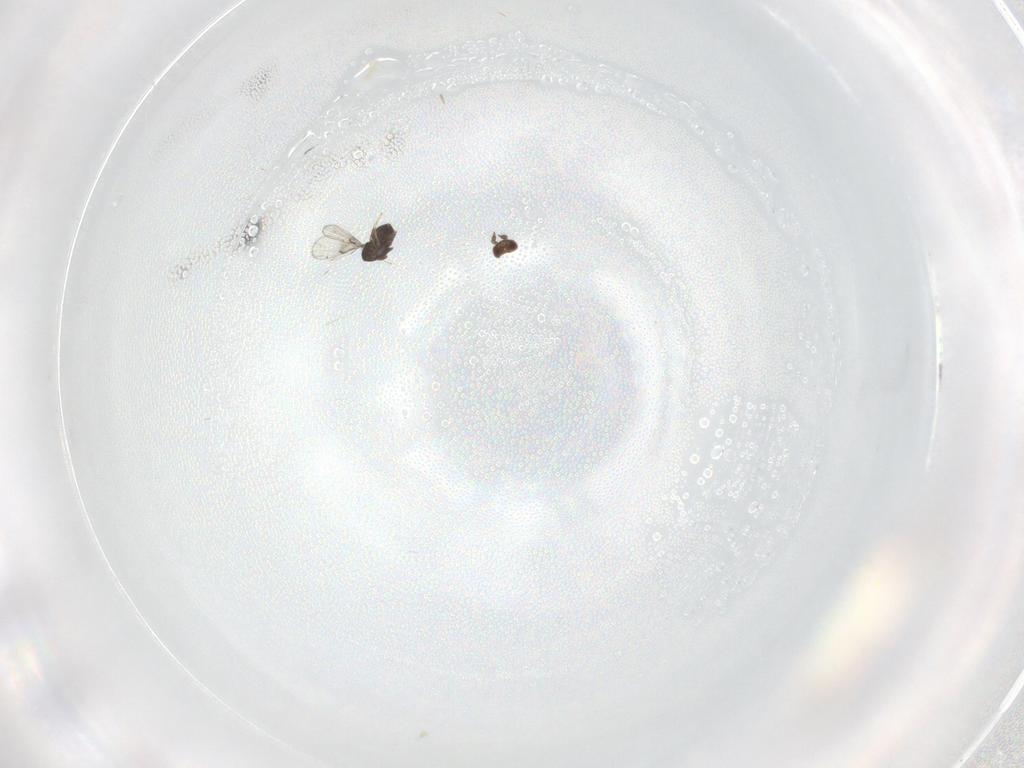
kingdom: Animalia
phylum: Arthropoda
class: Insecta
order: Hymenoptera
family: Trichogrammatidae
